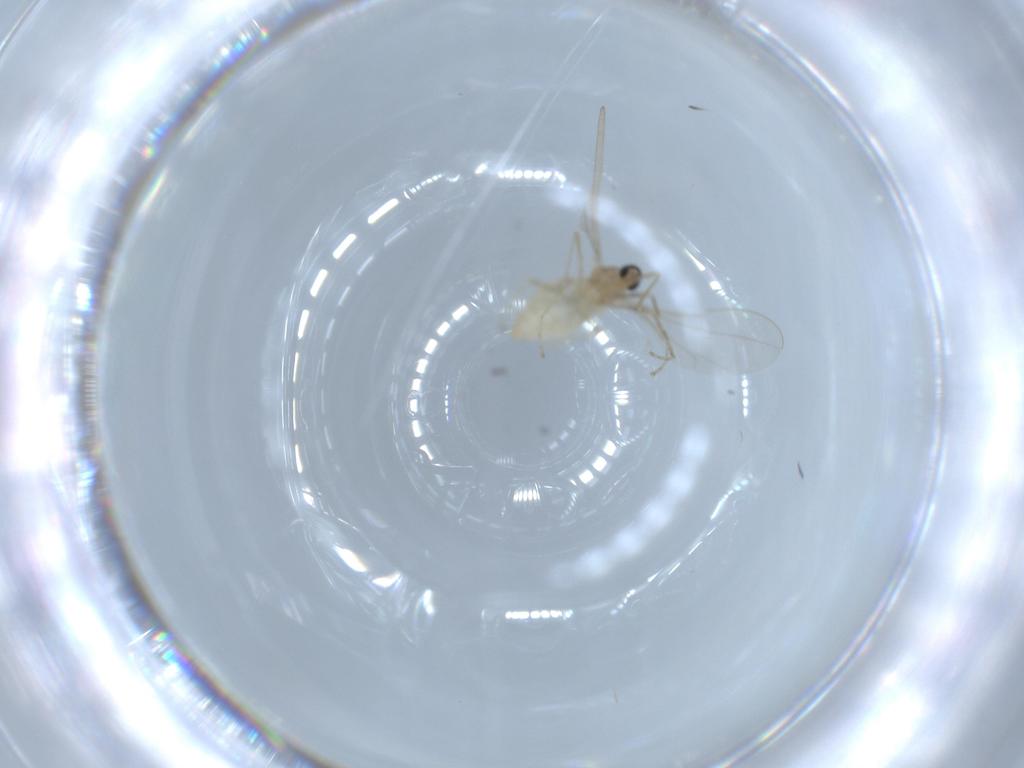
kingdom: Animalia
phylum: Arthropoda
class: Insecta
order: Diptera
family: Cecidomyiidae
